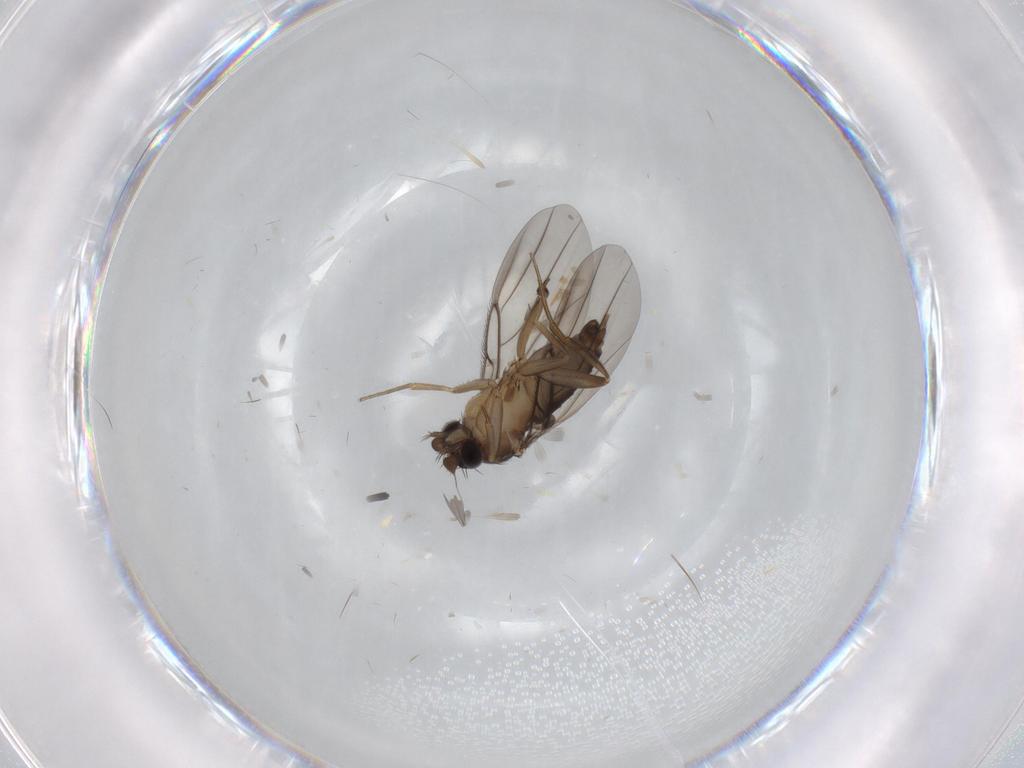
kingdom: Animalia
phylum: Arthropoda
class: Insecta
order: Diptera
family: Phoridae
